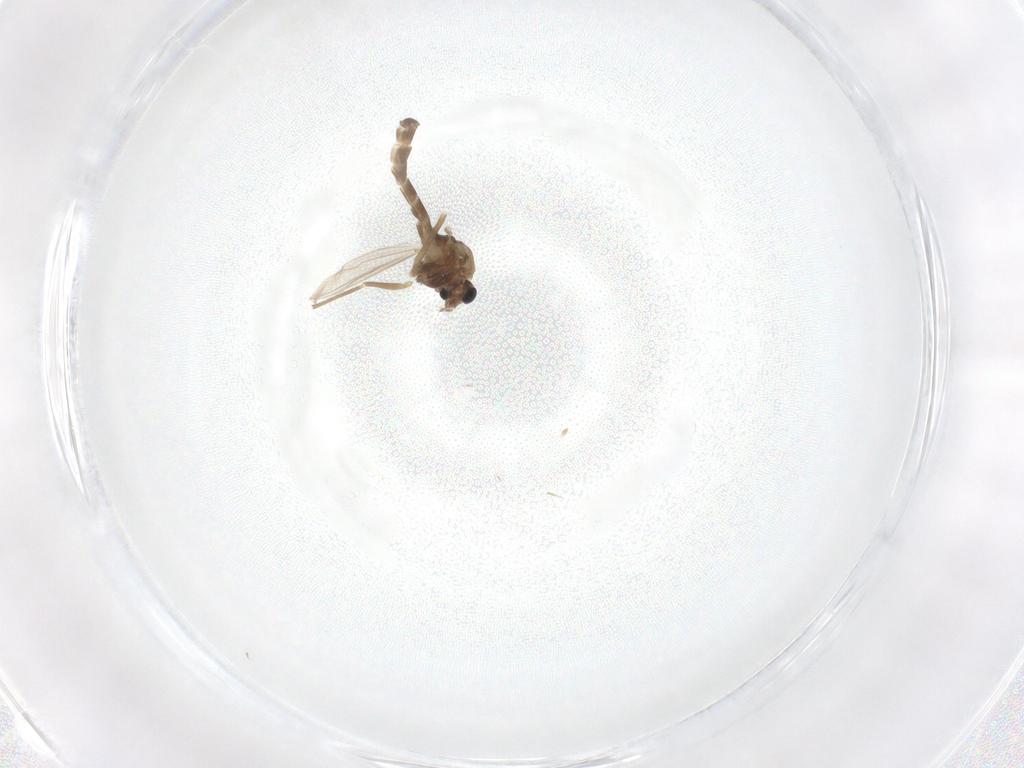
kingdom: Animalia
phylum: Arthropoda
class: Insecta
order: Diptera
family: Chironomidae
